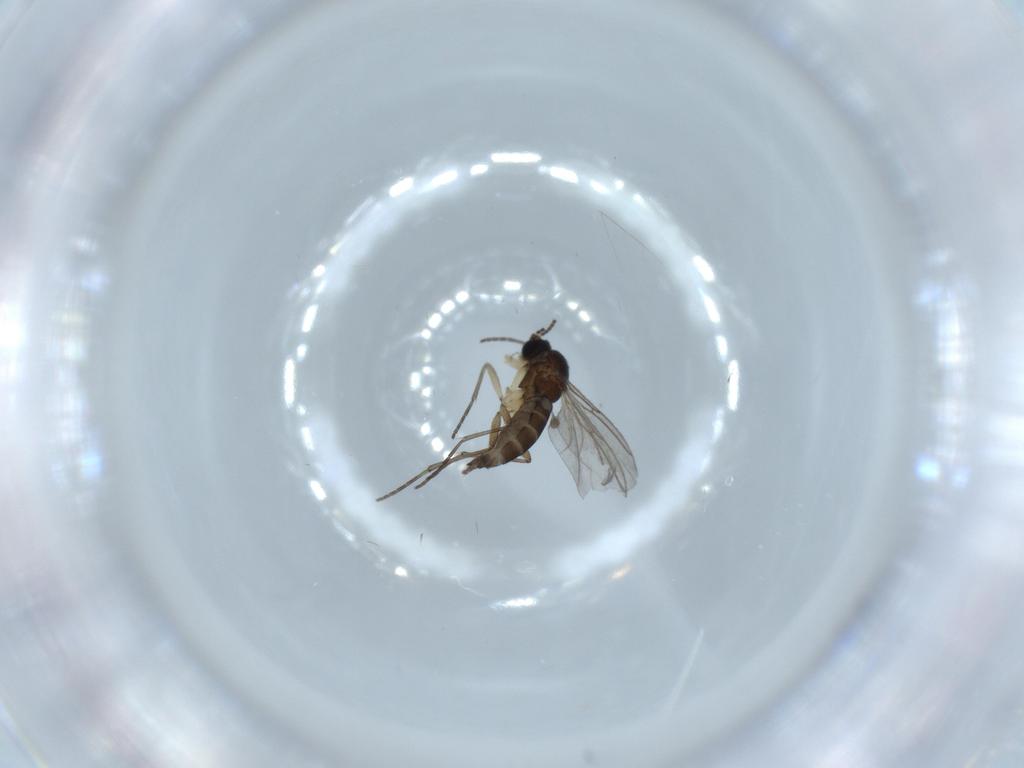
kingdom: Animalia
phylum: Arthropoda
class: Insecta
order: Diptera
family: Sciaridae
